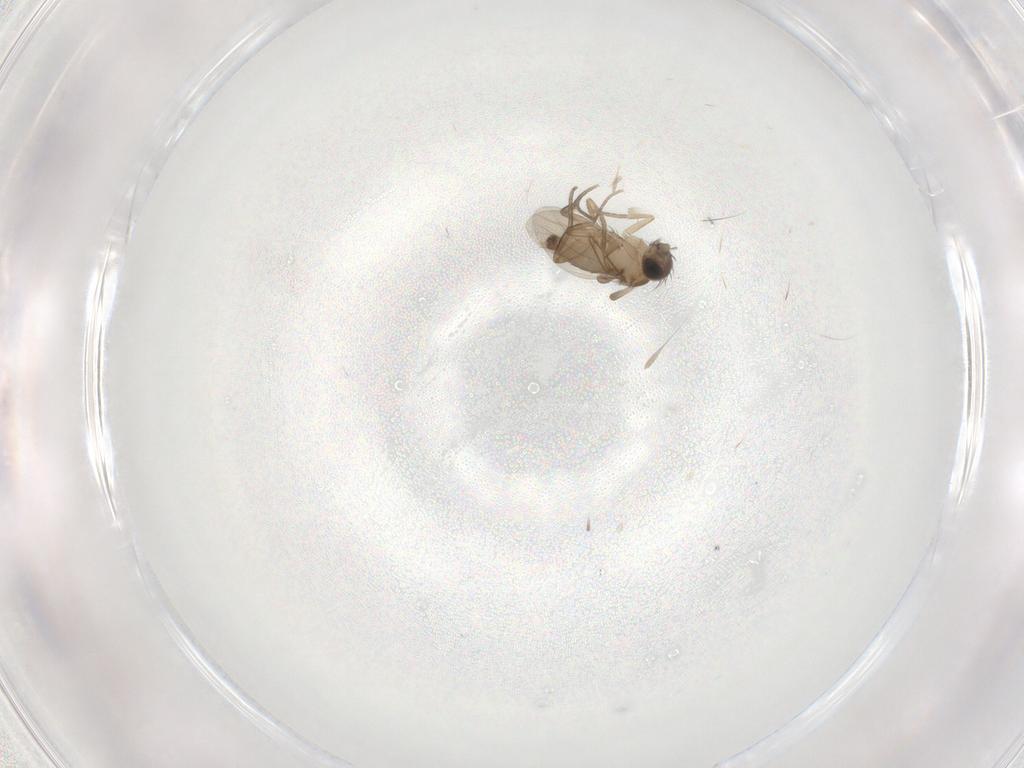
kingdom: Animalia
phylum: Arthropoda
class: Insecta
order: Diptera
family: Phoridae
